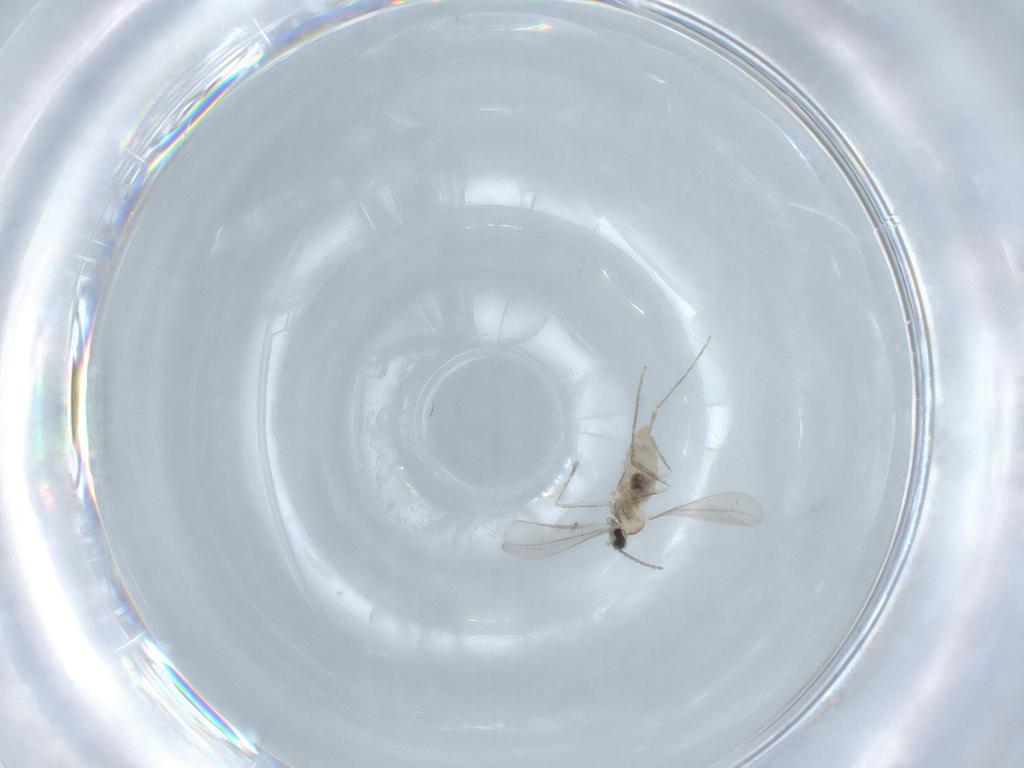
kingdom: Animalia
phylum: Arthropoda
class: Insecta
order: Diptera
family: Cecidomyiidae
